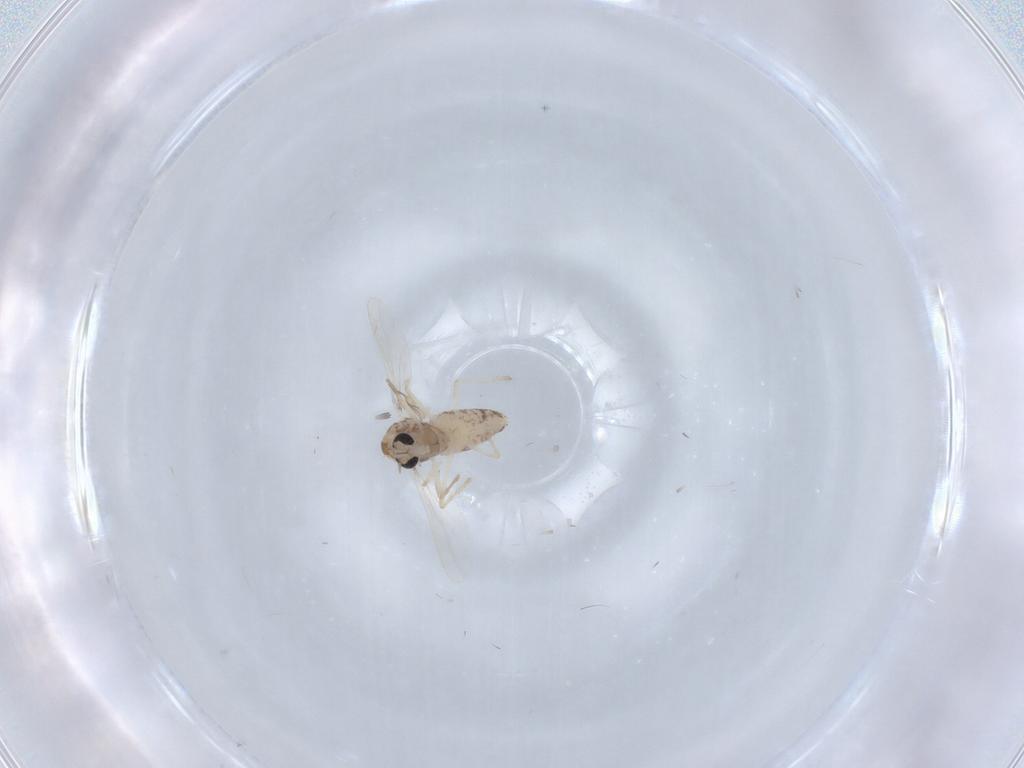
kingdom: Animalia
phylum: Arthropoda
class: Insecta
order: Diptera
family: Chironomidae
